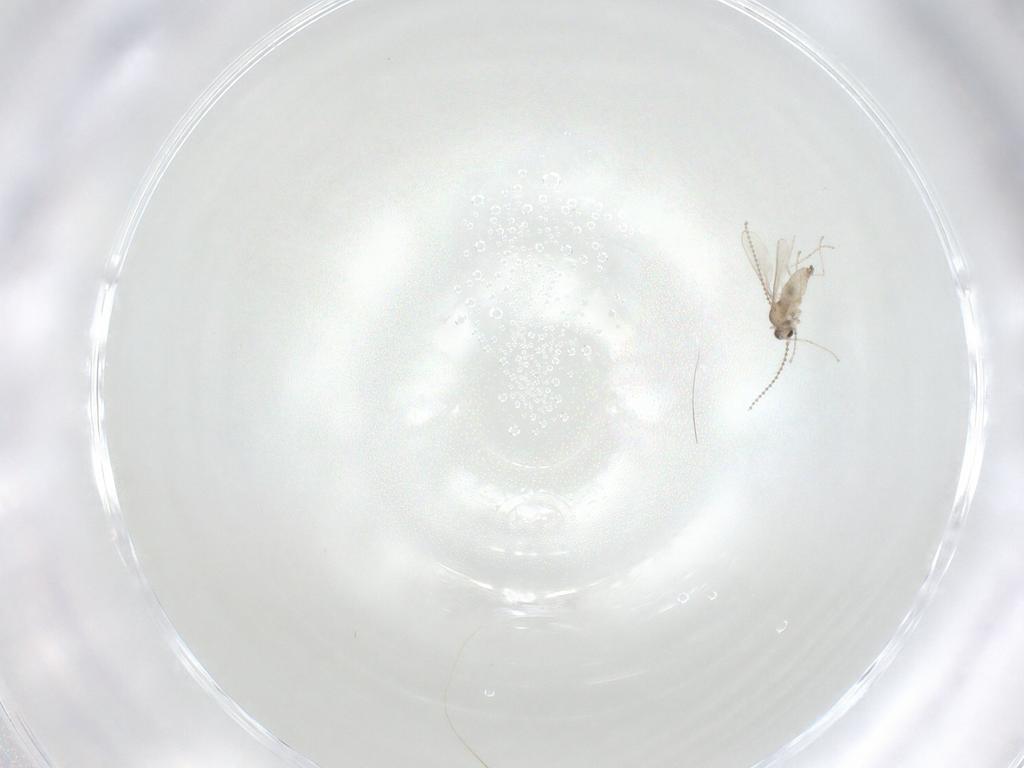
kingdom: Animalia
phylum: Arthropoda
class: Insecta
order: Diptera
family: Cecidomyiidae
